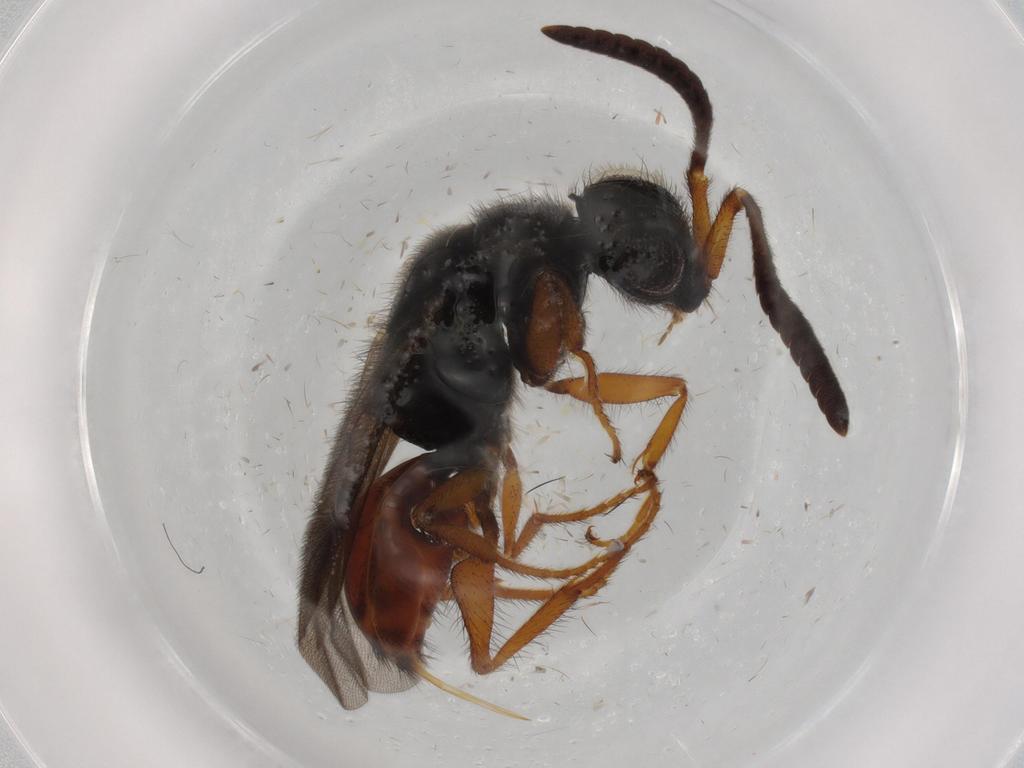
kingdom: Animalia
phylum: Arthropoda
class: Insecta
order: Hymenoptera
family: Chrysididae
